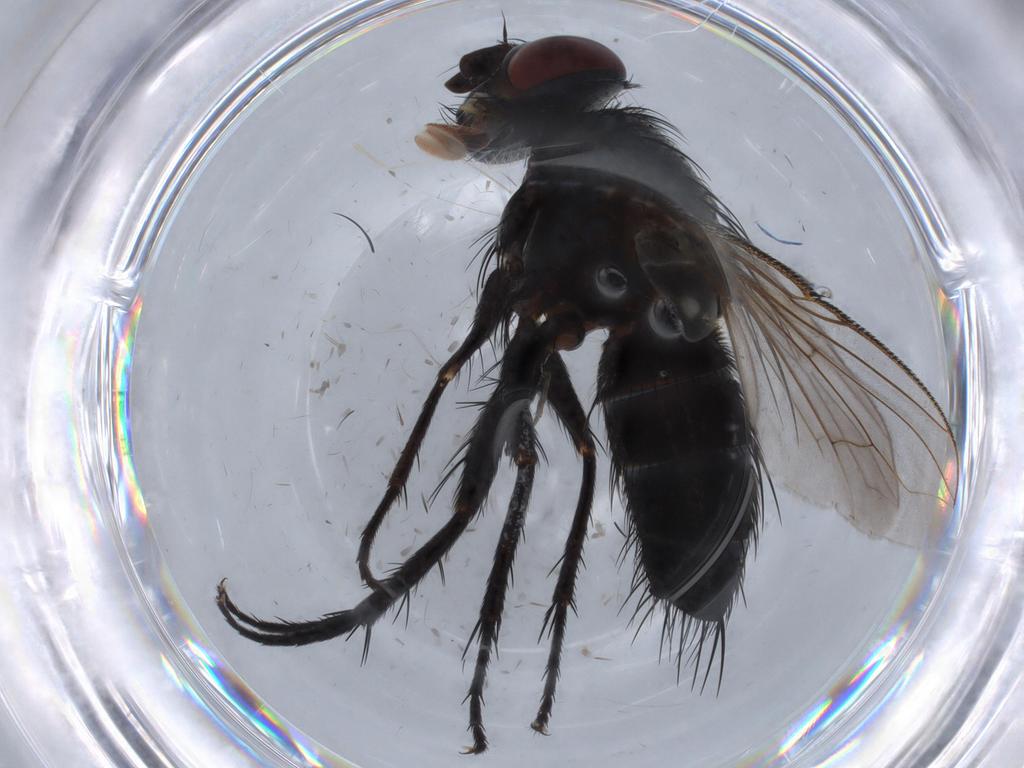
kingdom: Animalia
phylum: Arthropoda
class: Insecta
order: Diptera
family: Tachinidae
